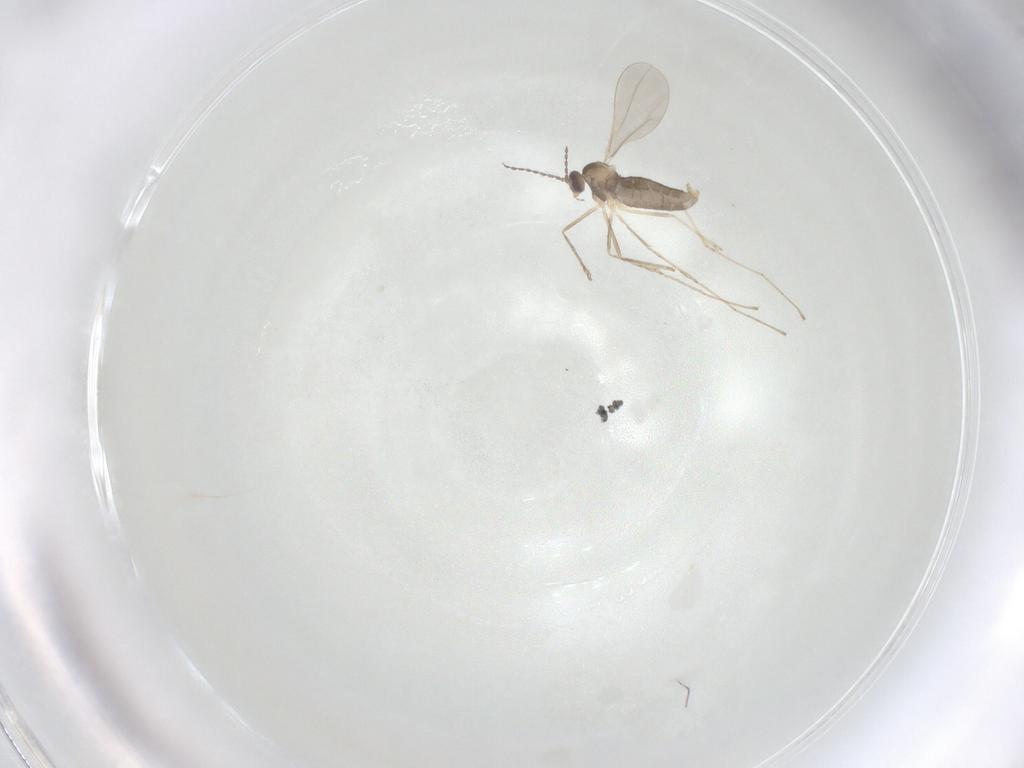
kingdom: Animalia
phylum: Arthropoda
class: Insecta
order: Diptera
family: Cecidomyiidae
